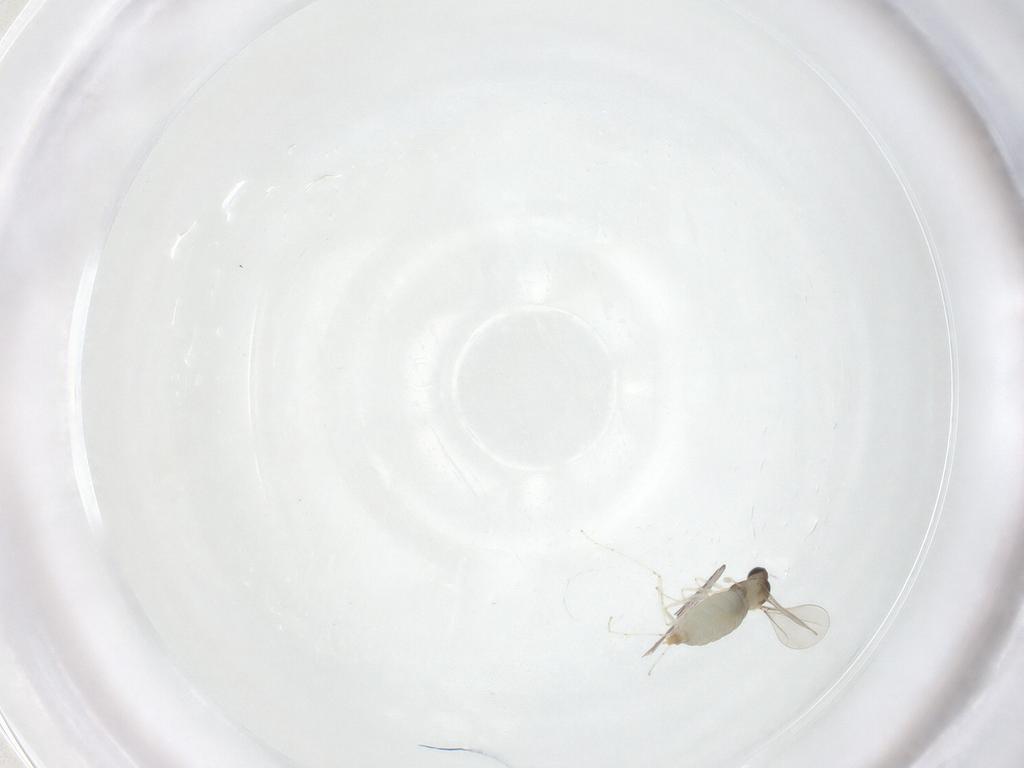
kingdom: Animalia
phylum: Arthropoda
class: Insecta
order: Diptera
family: Chironomidae
